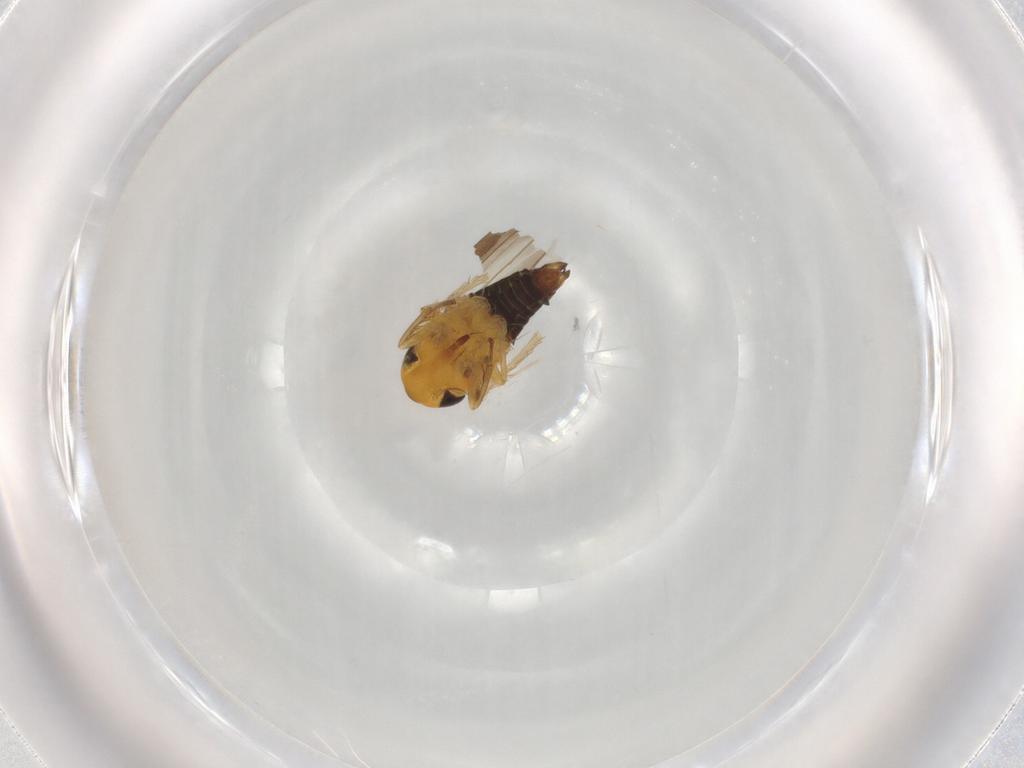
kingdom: Animalia
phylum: Arthropoda
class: Insecta
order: Hemiptera
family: Cicadellidae
